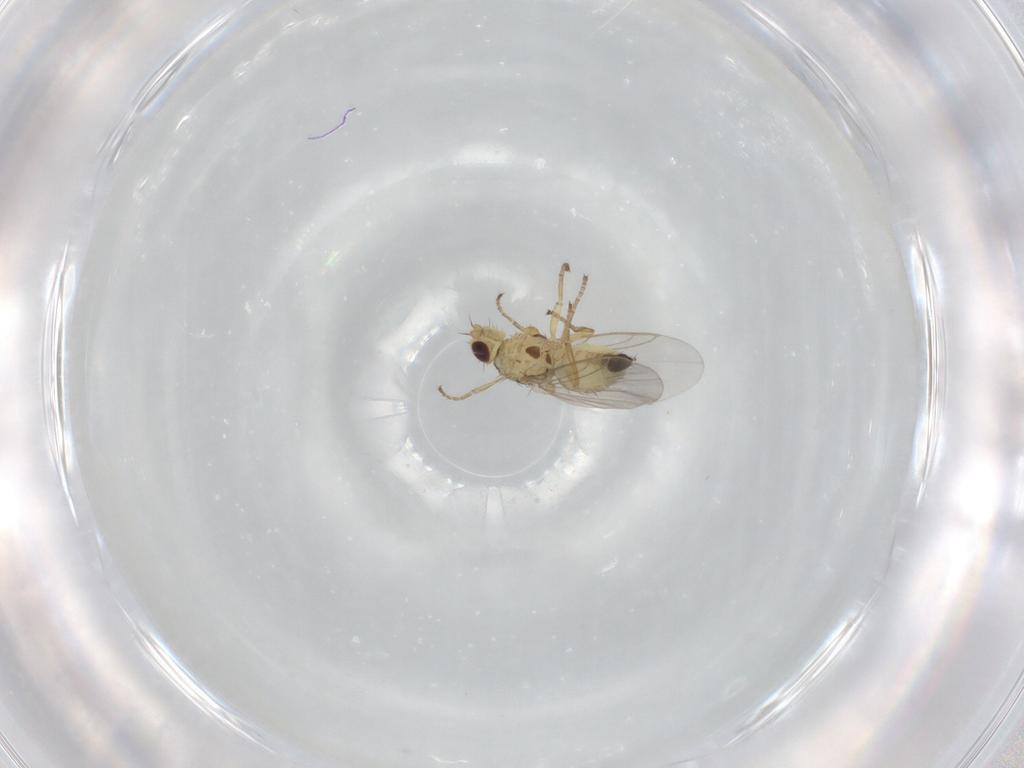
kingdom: Animalia
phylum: Arthropoda
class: Insecta
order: Diptera
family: Agromyzidae
